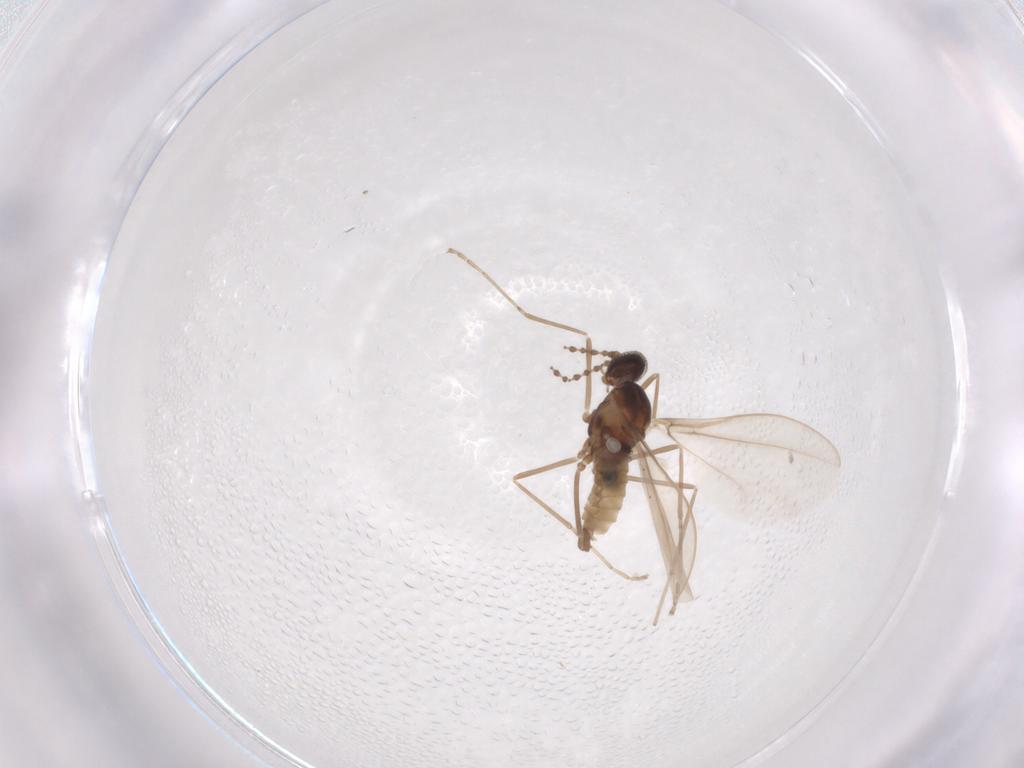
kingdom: Animalia
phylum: Arthropoda
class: Insecta
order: Diptera
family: Cecidomyiidae
